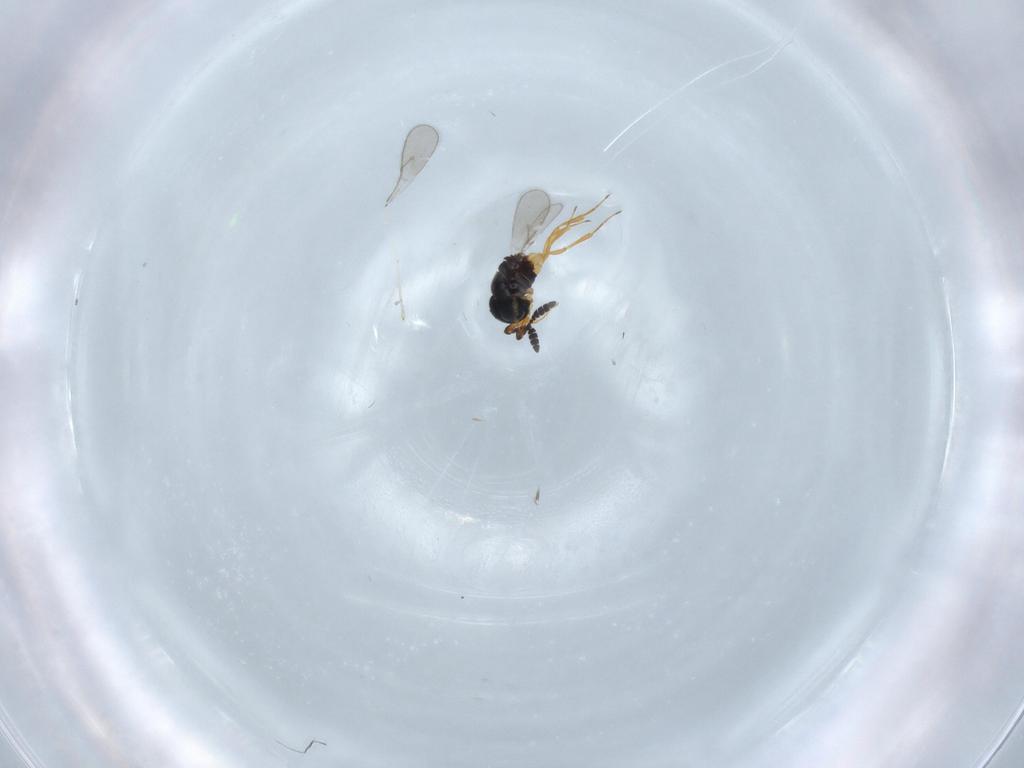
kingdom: Animalia
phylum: Arthropoda
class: Insecta
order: Hymenoptera
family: Scelionidae
